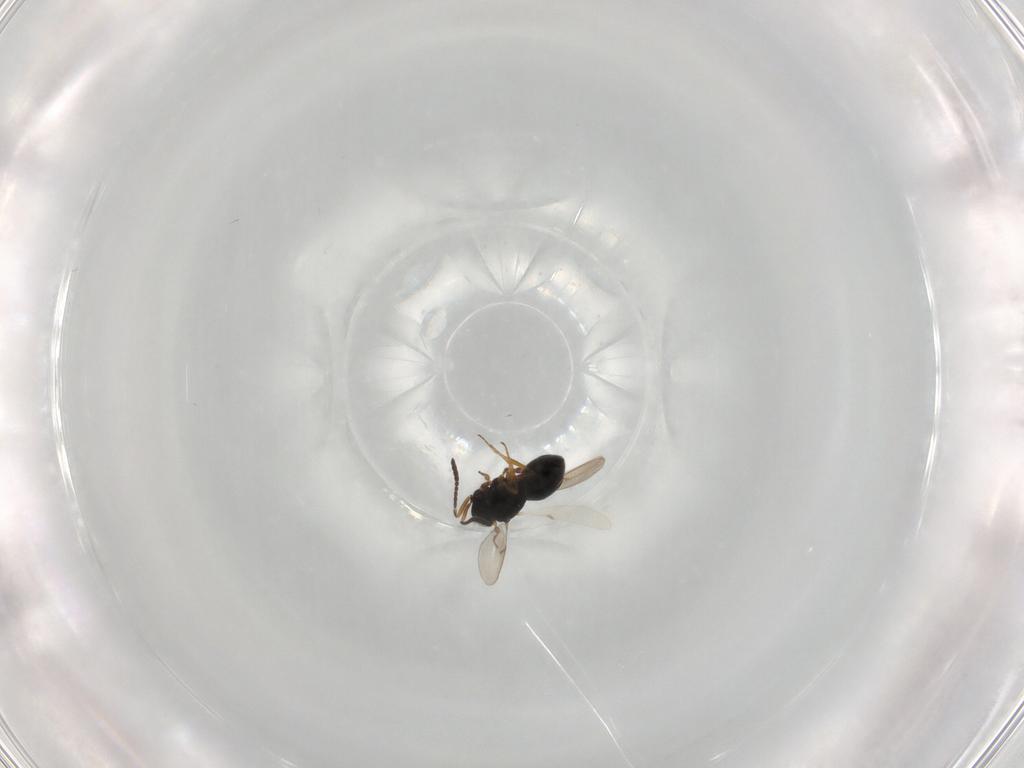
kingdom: Animalia
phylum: Arthropoda
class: Insecta
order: Hymenoptera
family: Scelionidae
